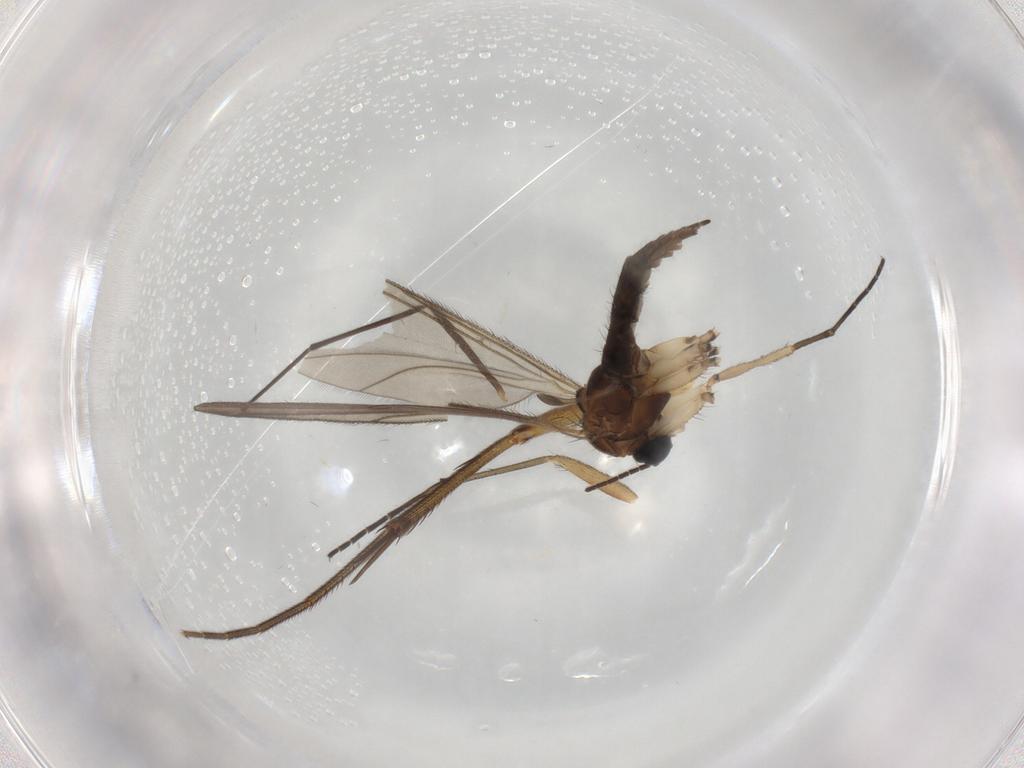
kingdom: Animalia
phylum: Arthropoda
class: Insecta
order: Diptera
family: Sciaridae
